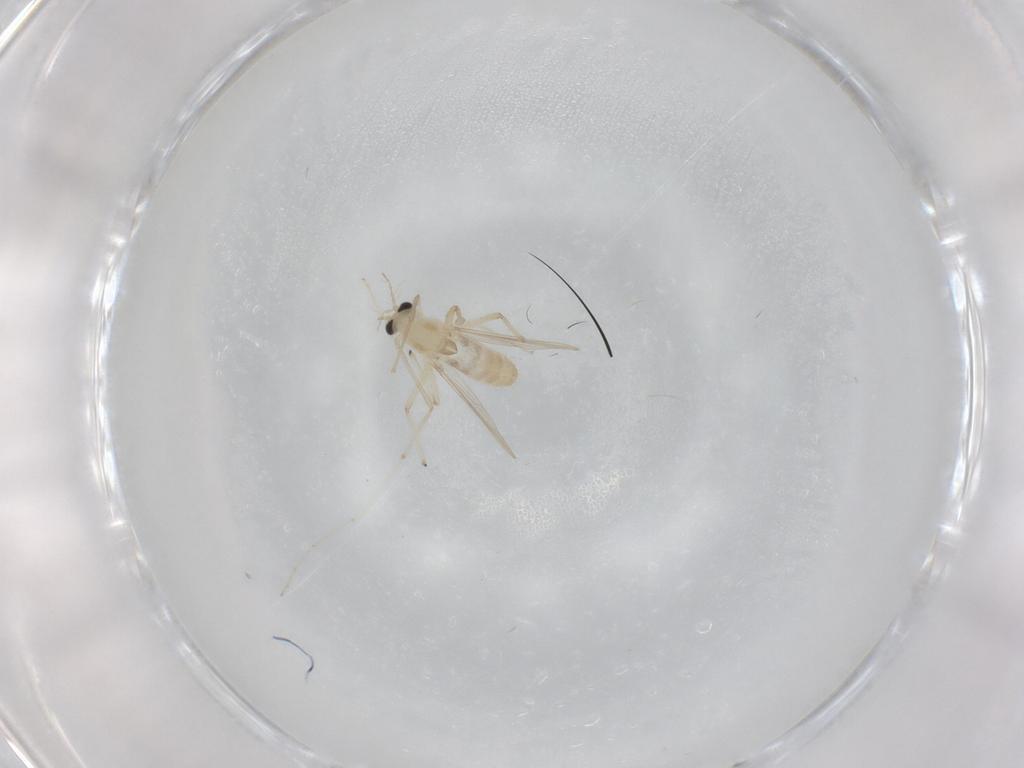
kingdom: Animalia
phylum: Arthropoda
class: Insecta
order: Diptera
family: Chironomidae
